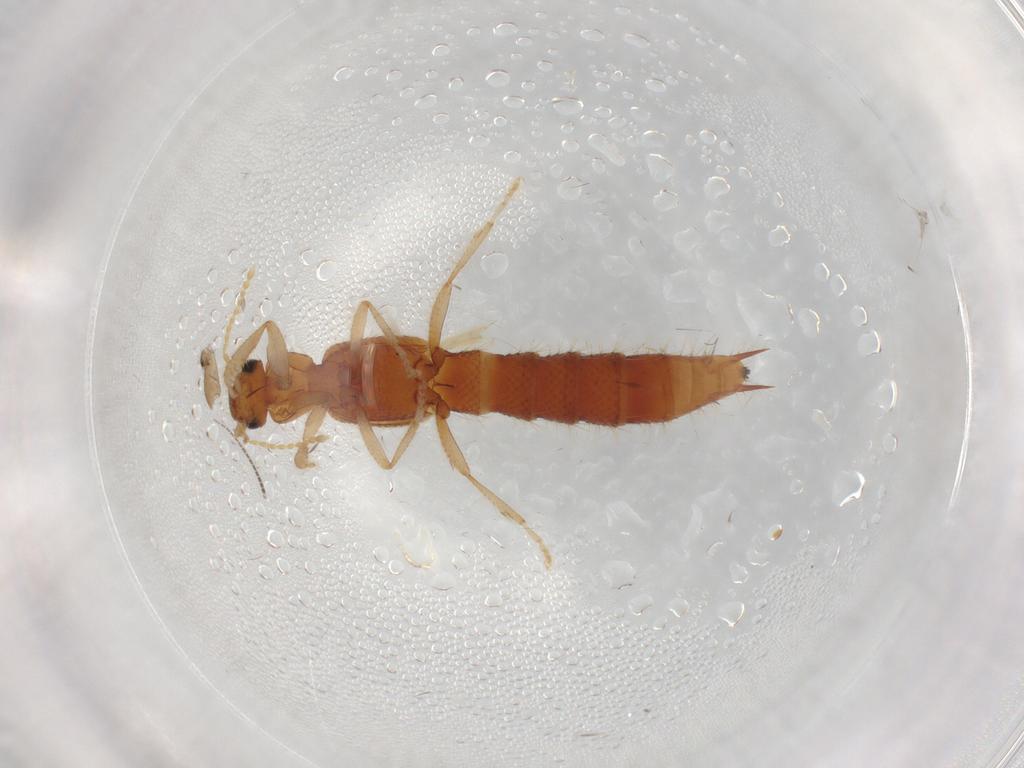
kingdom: Animalia
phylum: Arthropoda
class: Insecta
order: Coleoptera
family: Staphylinidae
